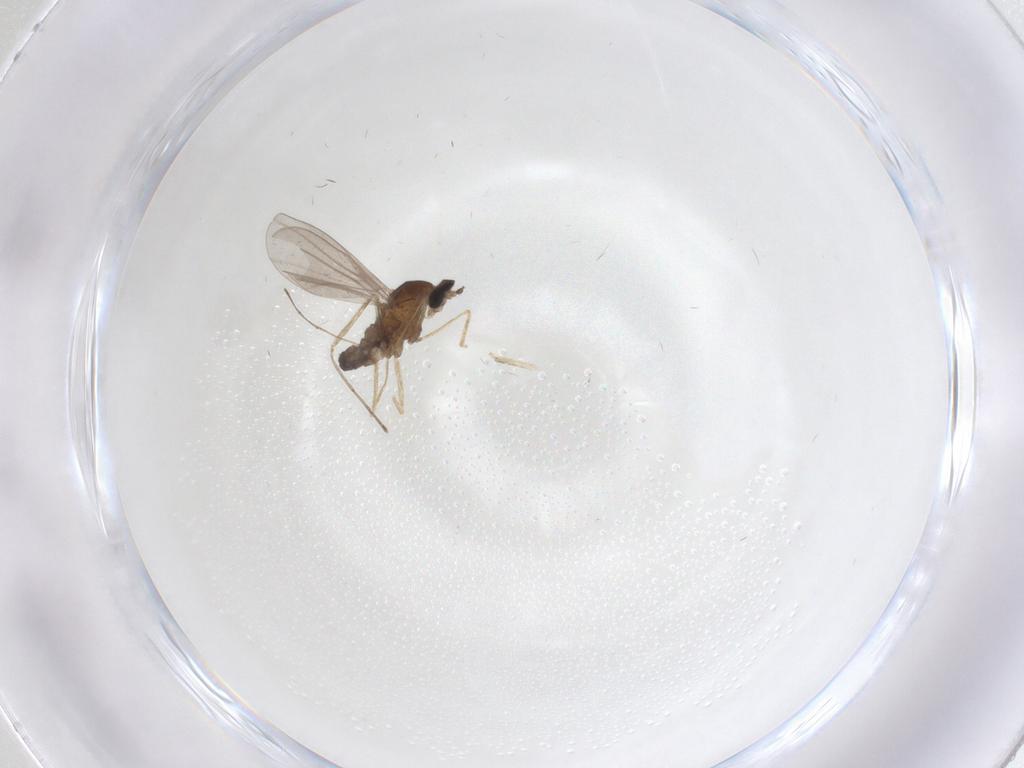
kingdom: Animalia
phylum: Arthropoda
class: Insecta
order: Diptera
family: Cecidomyiidae
